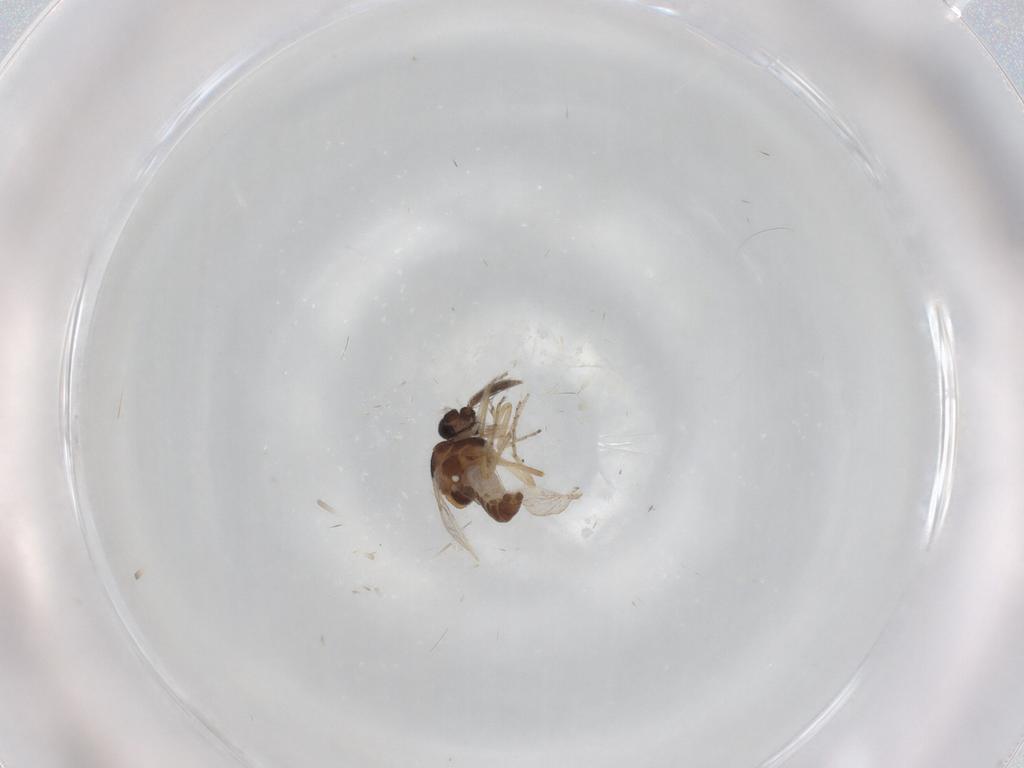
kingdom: Animalia
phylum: Arthropoda
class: Insecta
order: Diptera
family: Ceratopogonidae
